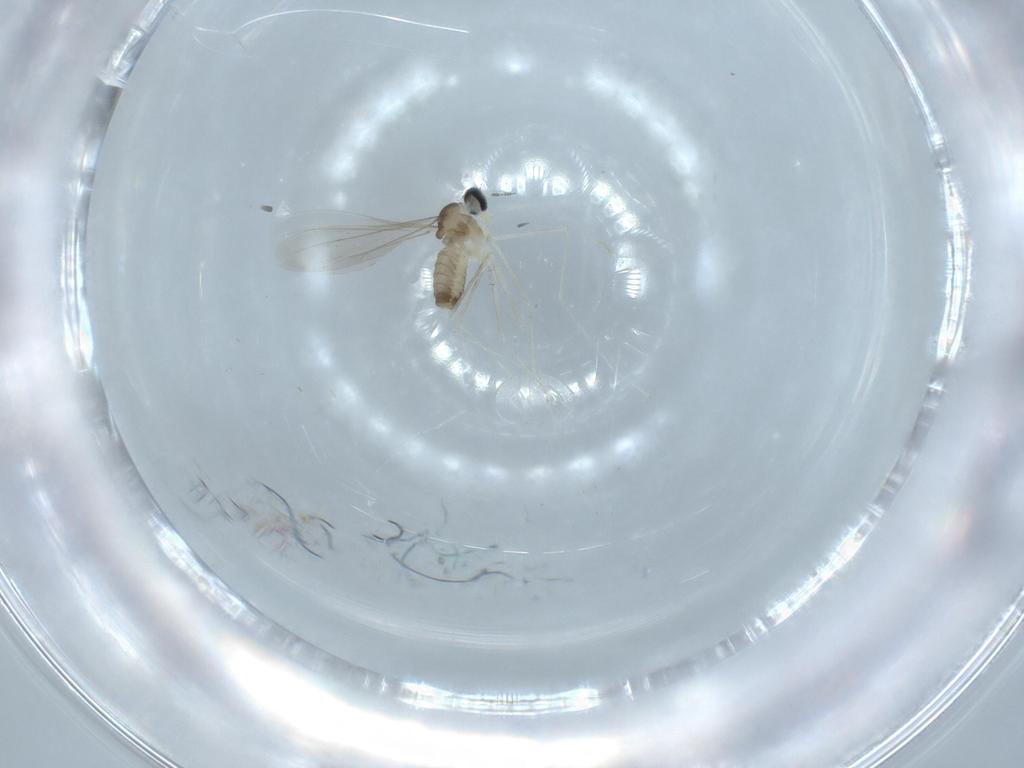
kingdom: Animalia
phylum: Arthropoda
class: Insecta
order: Diptera
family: Cecidomyiidae
